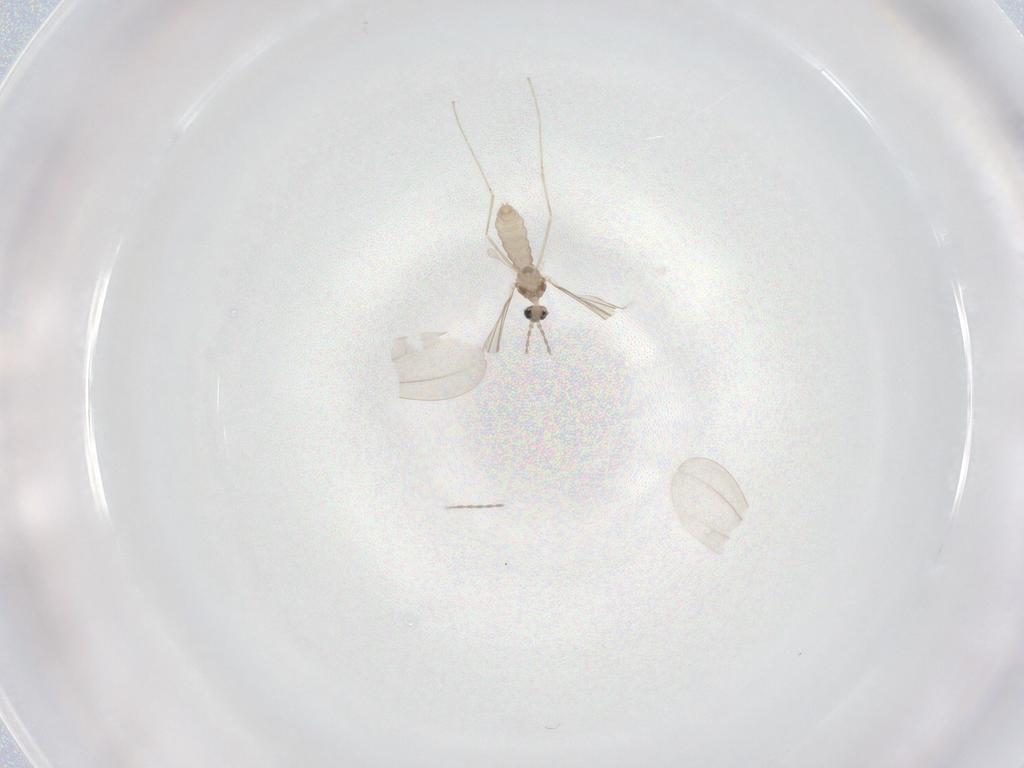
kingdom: Animalia
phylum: Arthropoda
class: Insecta
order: Diptera
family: Cecidomyiidae
